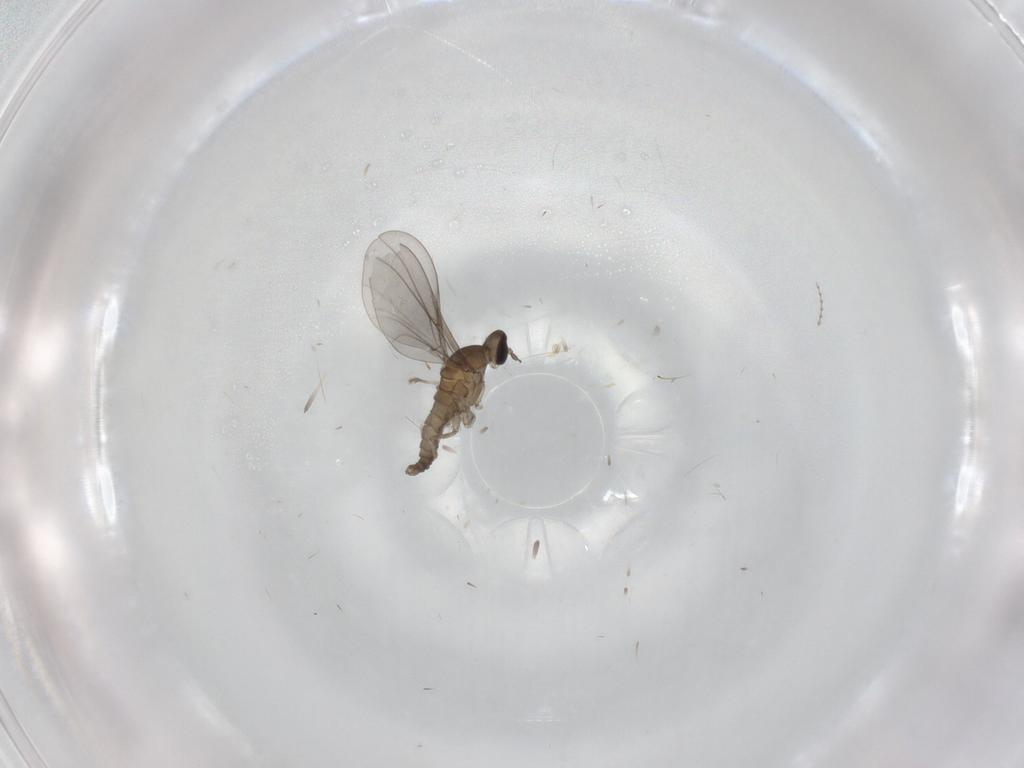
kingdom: Animalia
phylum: Arthropoda
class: Insecta
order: Diptera
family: Cecidomyiidae
